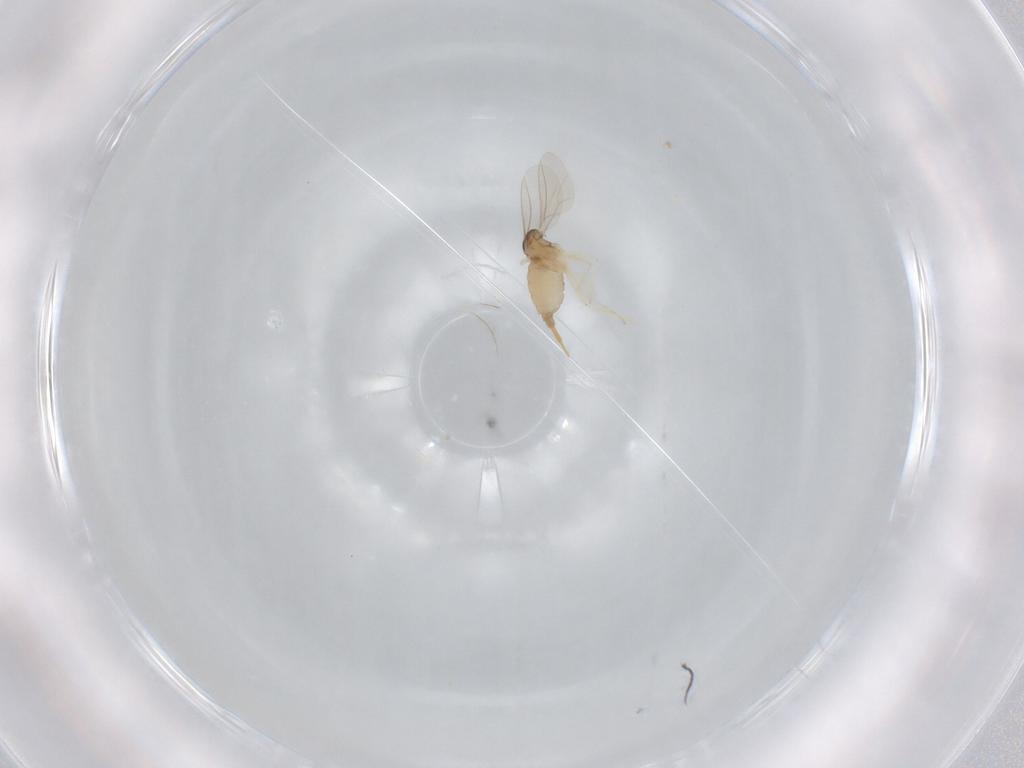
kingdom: Animalia
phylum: Arthropoda
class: Insecta
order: Diptera
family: Cecidomyiidae
